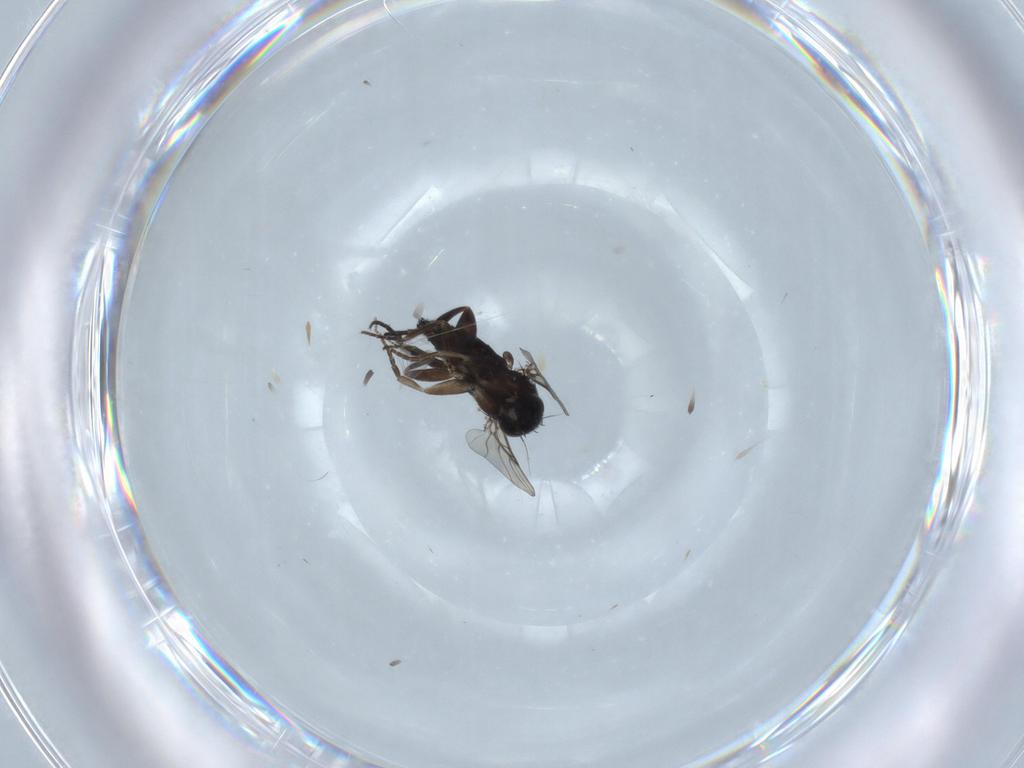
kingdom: Animalia
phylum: Arthropoda
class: Insecta
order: Diptera
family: Phoridae
